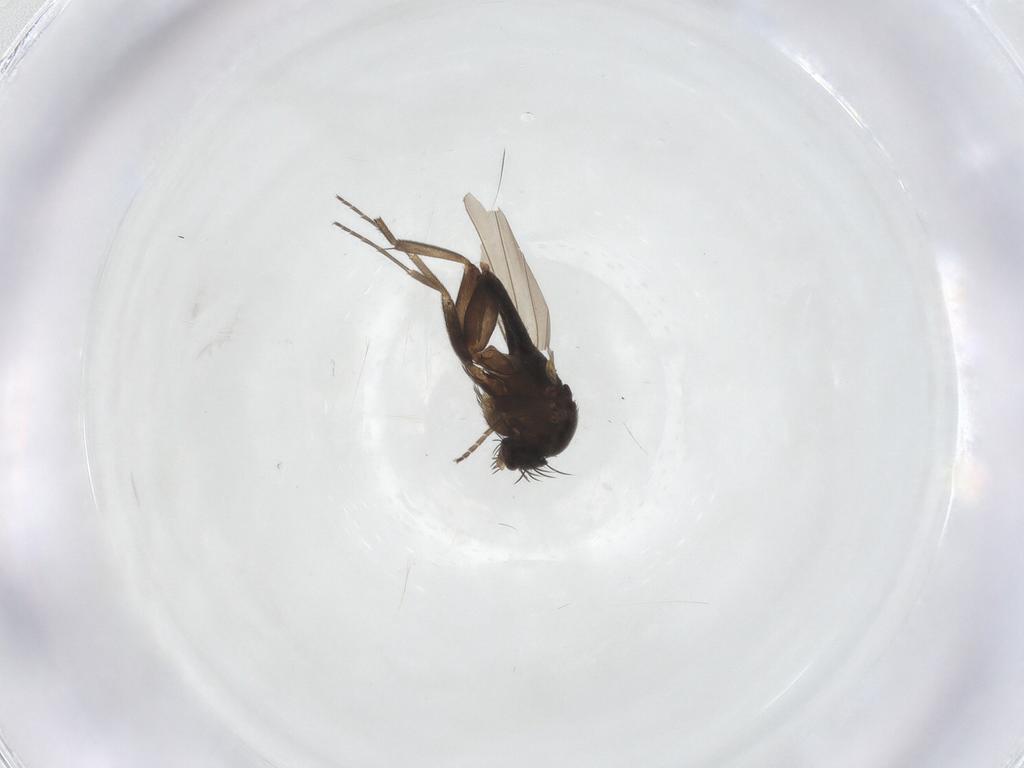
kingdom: Animalia
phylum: Arthropoda
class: Insecta
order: Diptera
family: Phoridae
